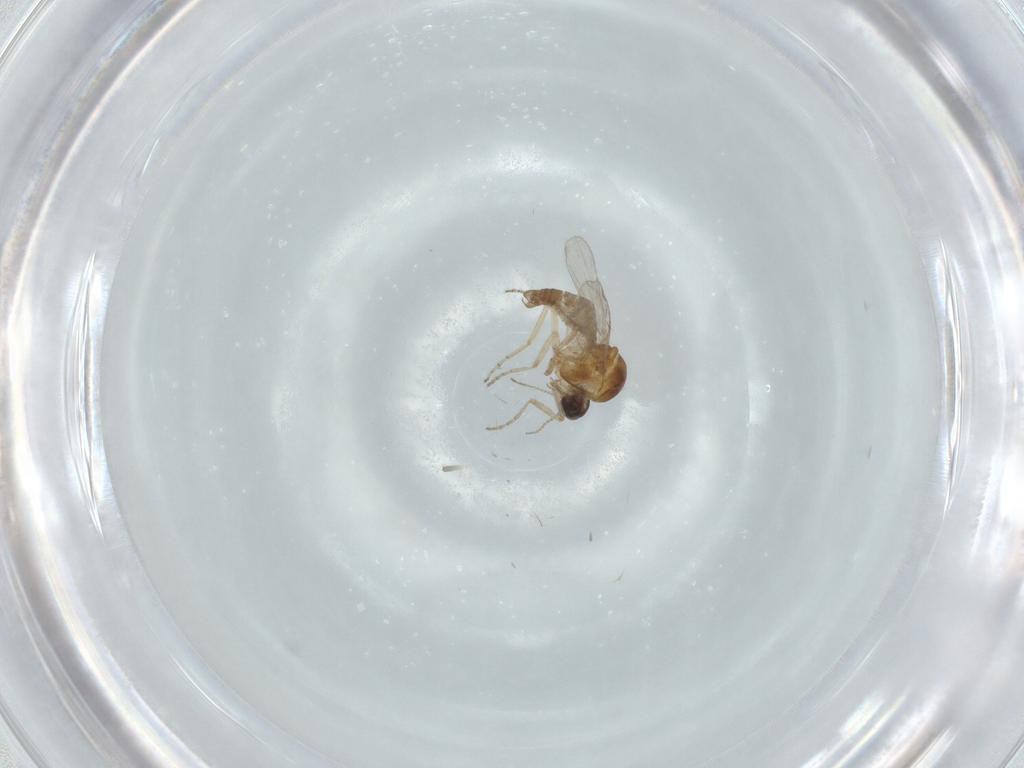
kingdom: Animalia
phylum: Arthropoda
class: Insecta
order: Diptera
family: Ceratopogonidae
